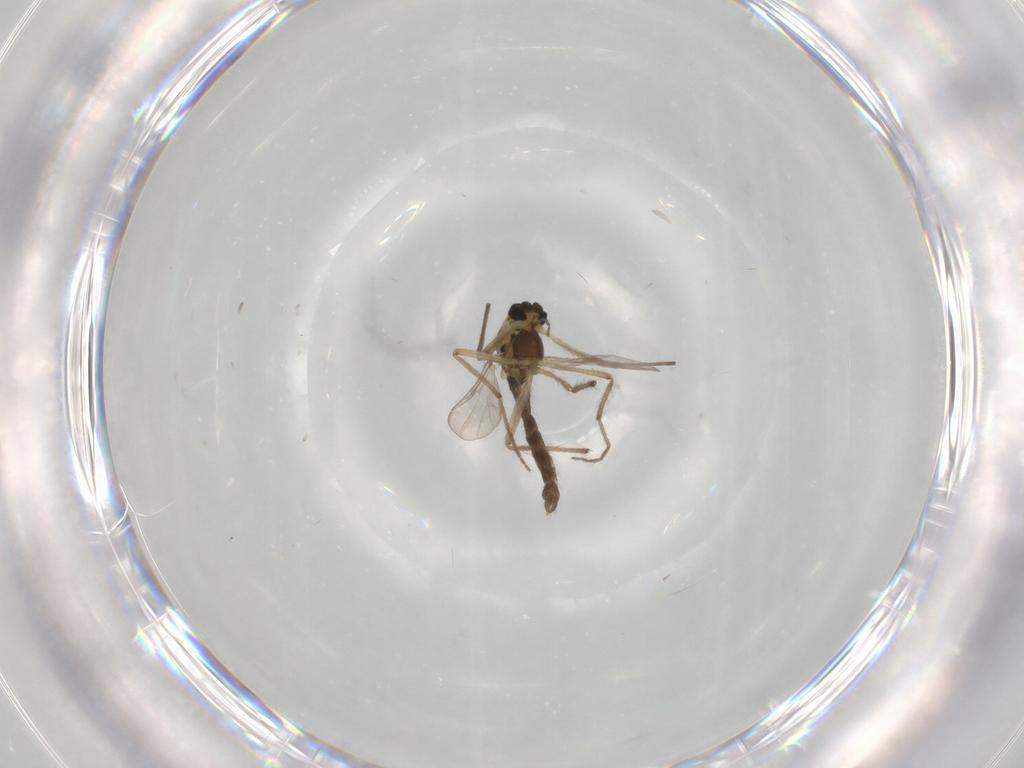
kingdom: Animalia
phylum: Arthropoda
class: Insecta
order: Diptera
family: Chironomidae
